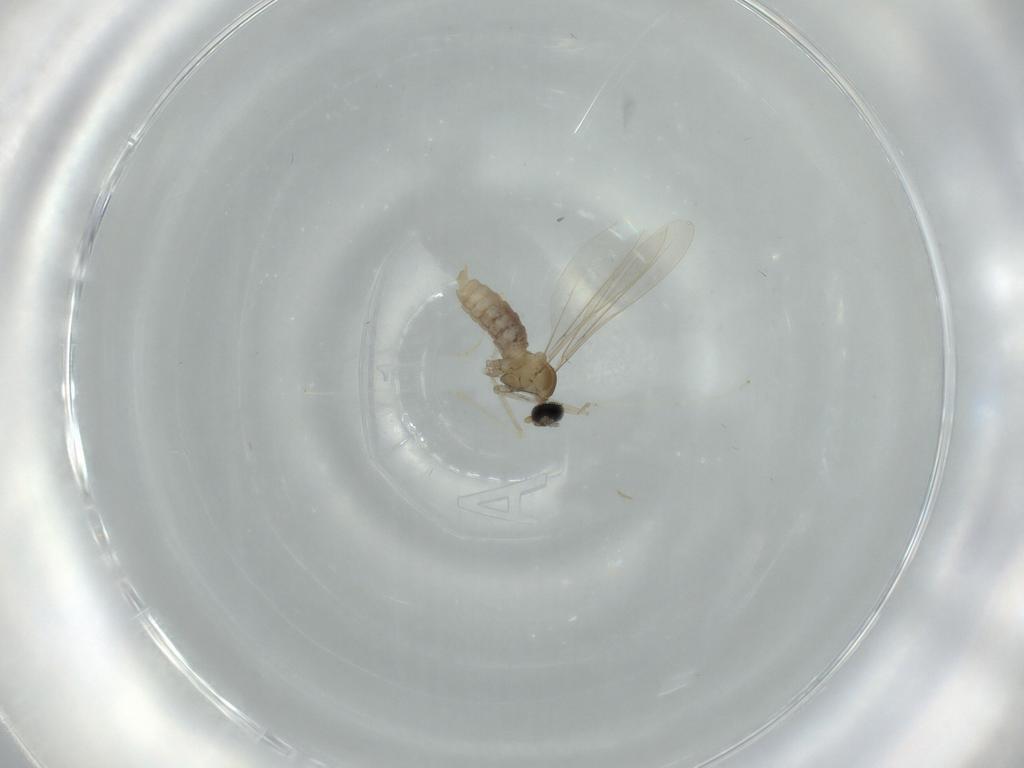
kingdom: Animalia
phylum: Arthropoda
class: Insecta
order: Diptera
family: Cecidomyiidae
